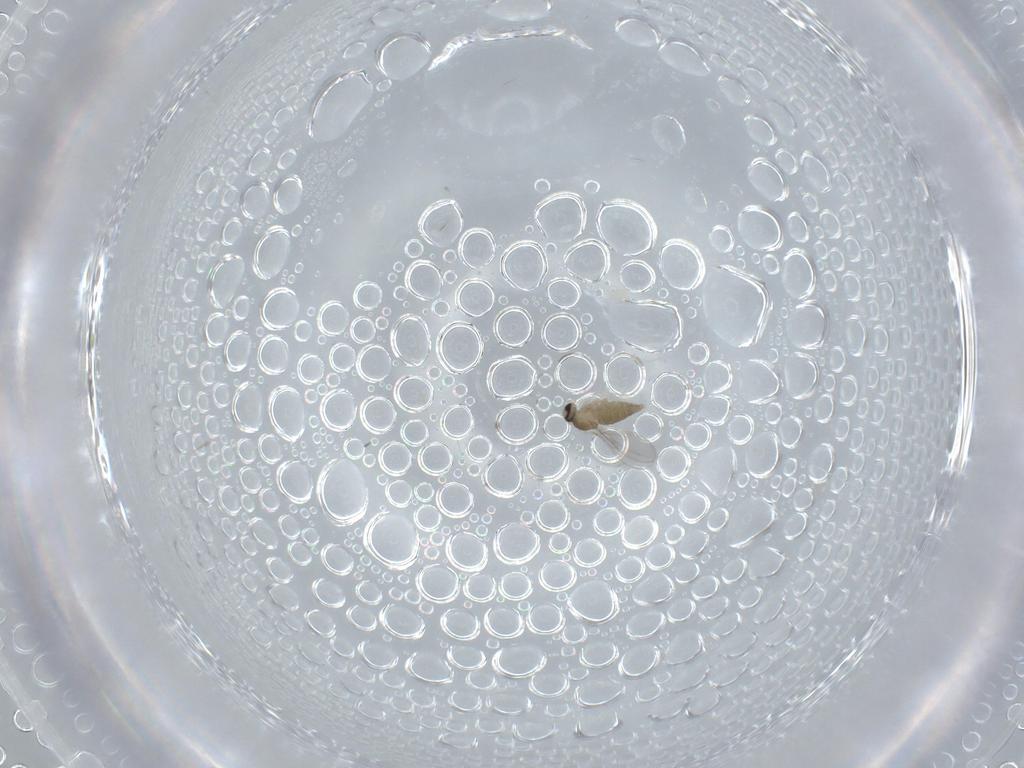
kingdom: Animalia
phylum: Arthropoda
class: Insecta
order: Diptera
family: Cecidomyiidae
